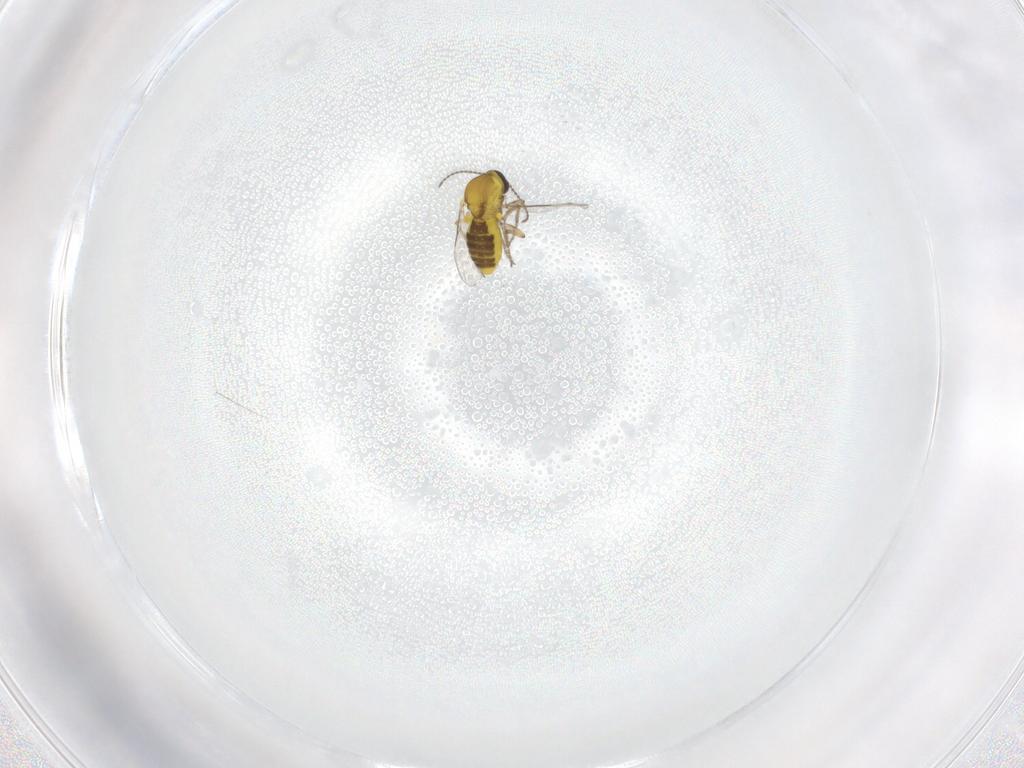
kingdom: Animalia
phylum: Arthropoda
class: Insecta
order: Diptera
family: Ceratopogonidae
